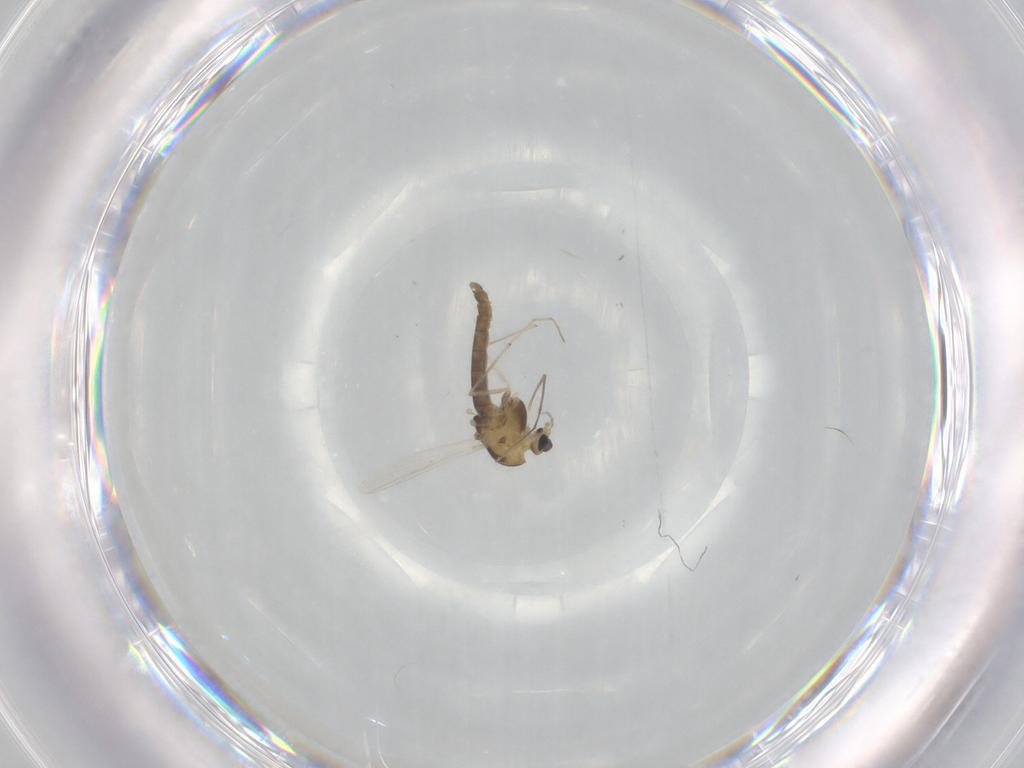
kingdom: Animalia
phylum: Arthropoda
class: Insecta
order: Diptera
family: Chironomidae
